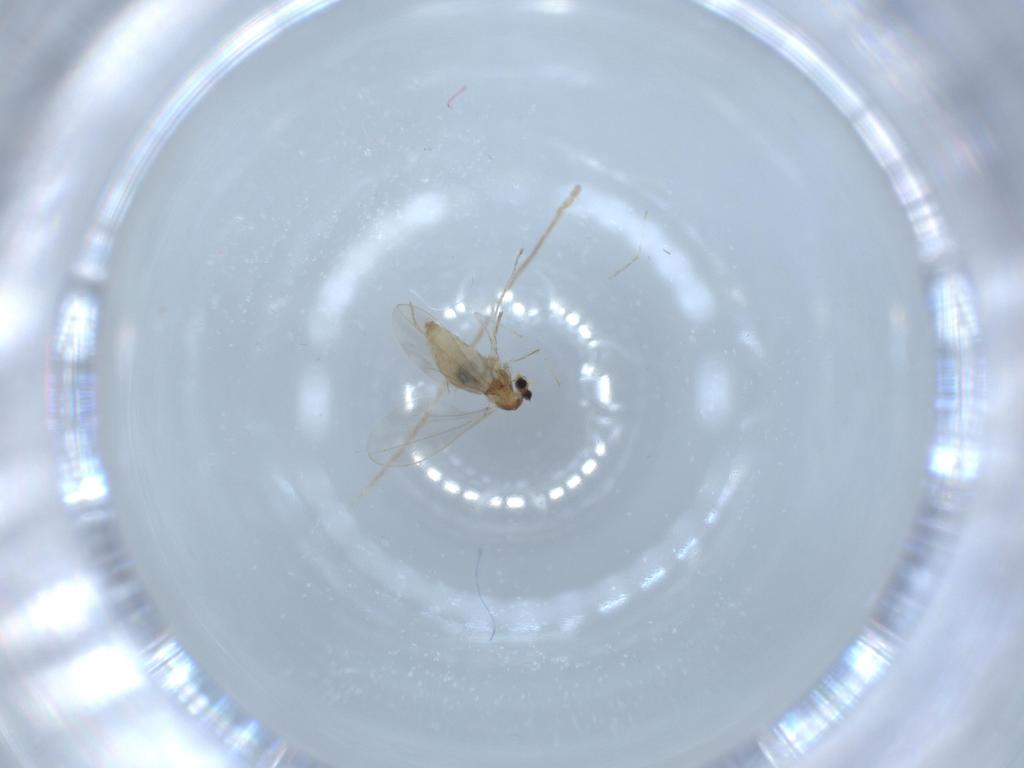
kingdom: Animalia
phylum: Arthropoda
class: Insecta
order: Diptera
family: Cecidomyiidae
